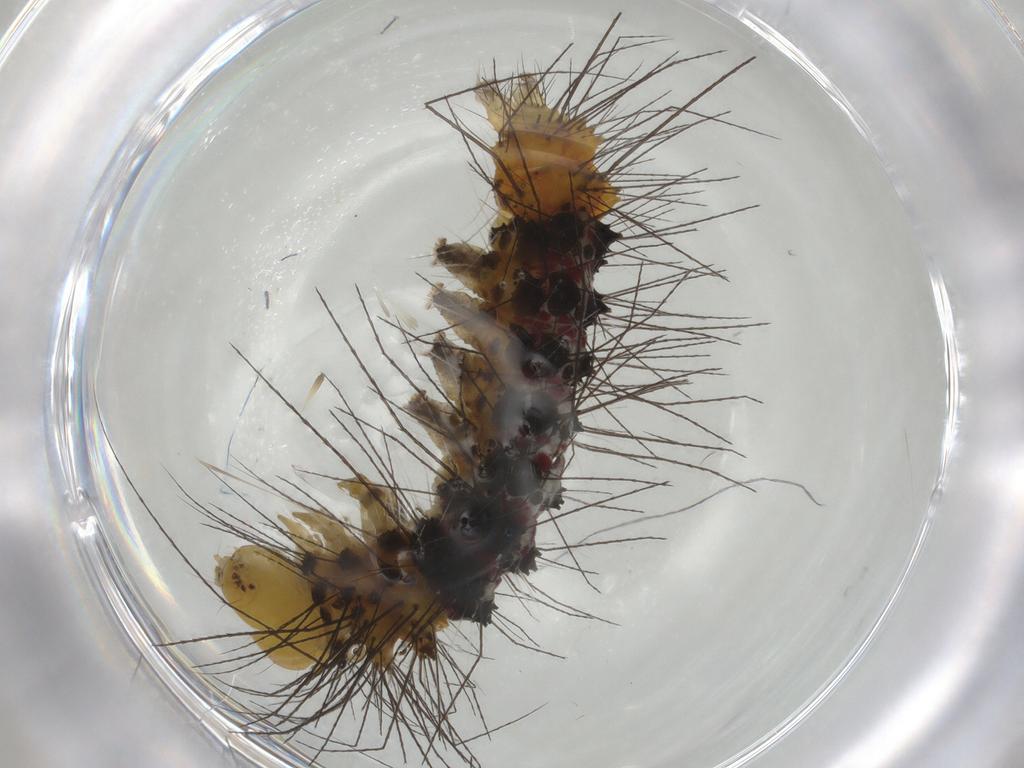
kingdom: Animalia
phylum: Arthropoda
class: Insecta
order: Lepidoptera
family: Erebidae
